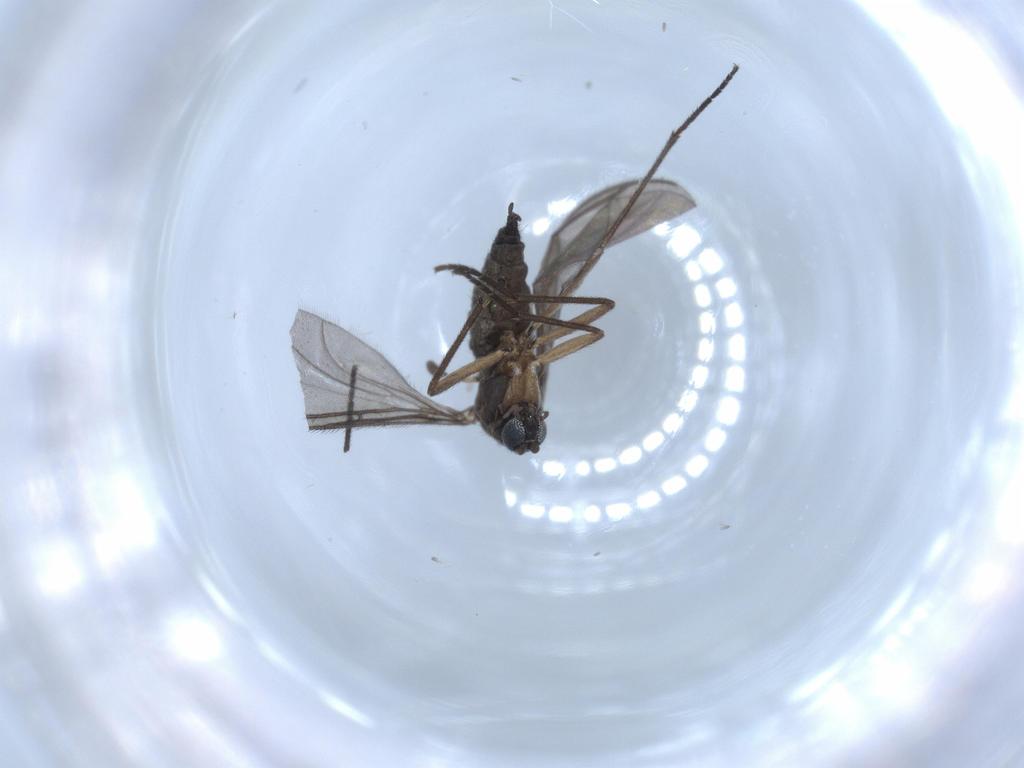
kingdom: Animalia
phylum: Arthropoda
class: Insecta
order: Diptera
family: Sciaridae
